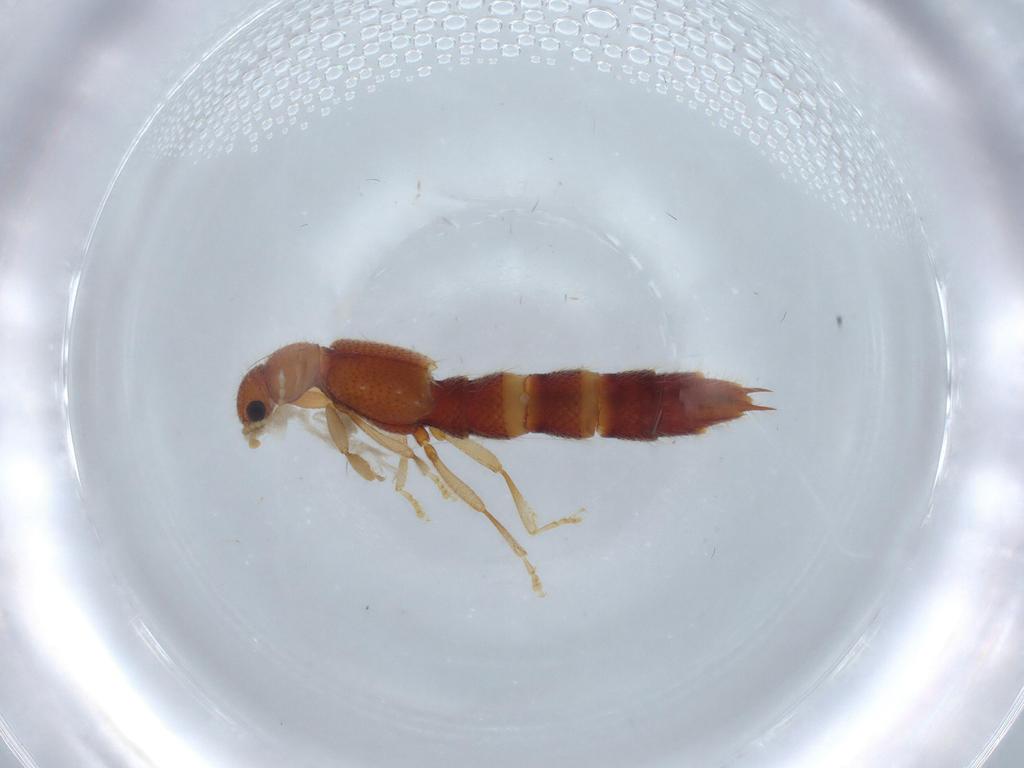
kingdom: Animalia
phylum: Arthropoda
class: Insecta
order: Coleoptera
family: Staphylinidae
